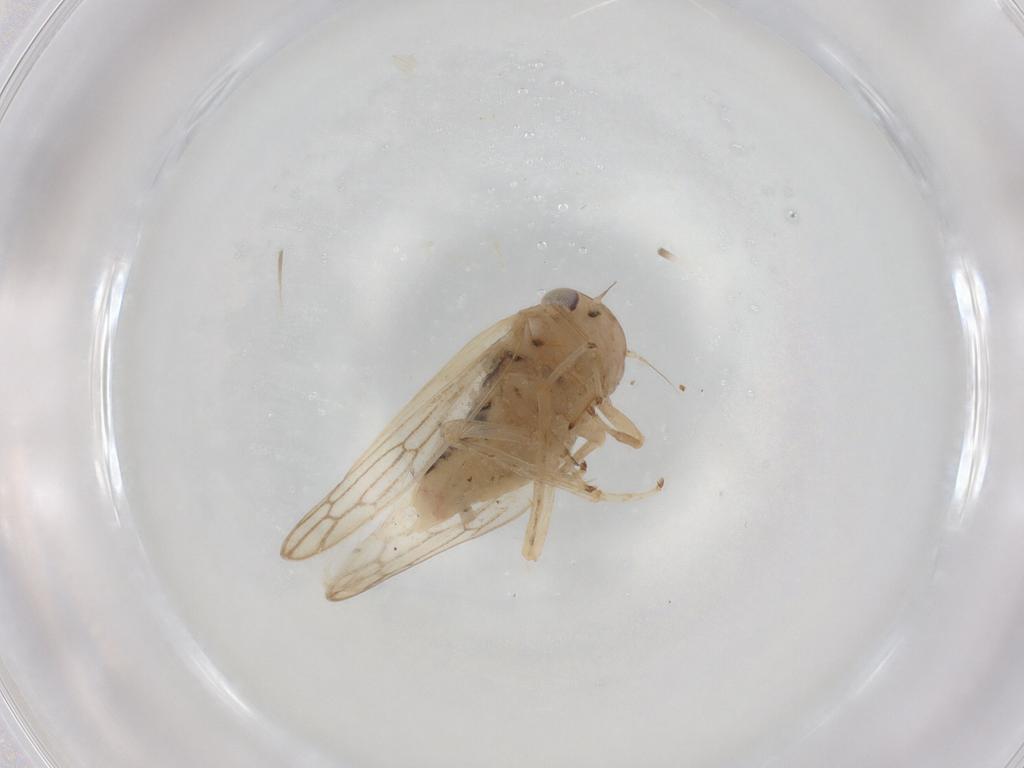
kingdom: Animalia
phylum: Arthropoda
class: Insecta
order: Hemiptera
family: Cicadellidae
